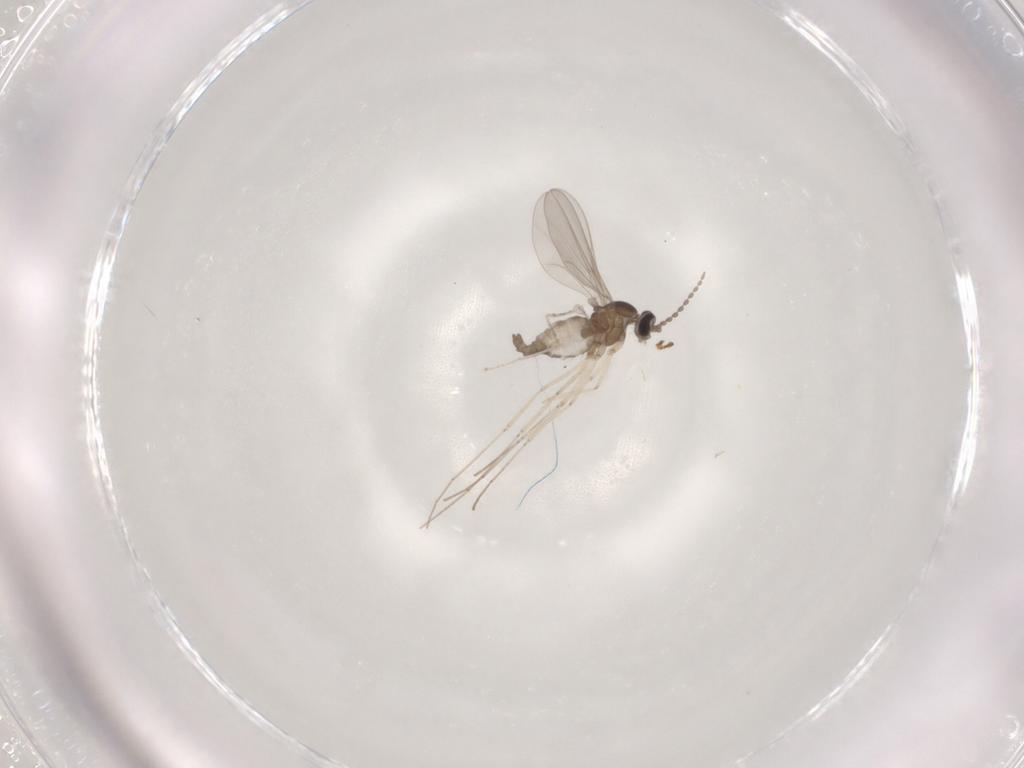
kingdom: Animalia
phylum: Arthropoda
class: Insecta
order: Diptera
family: Cecidomyiidae
